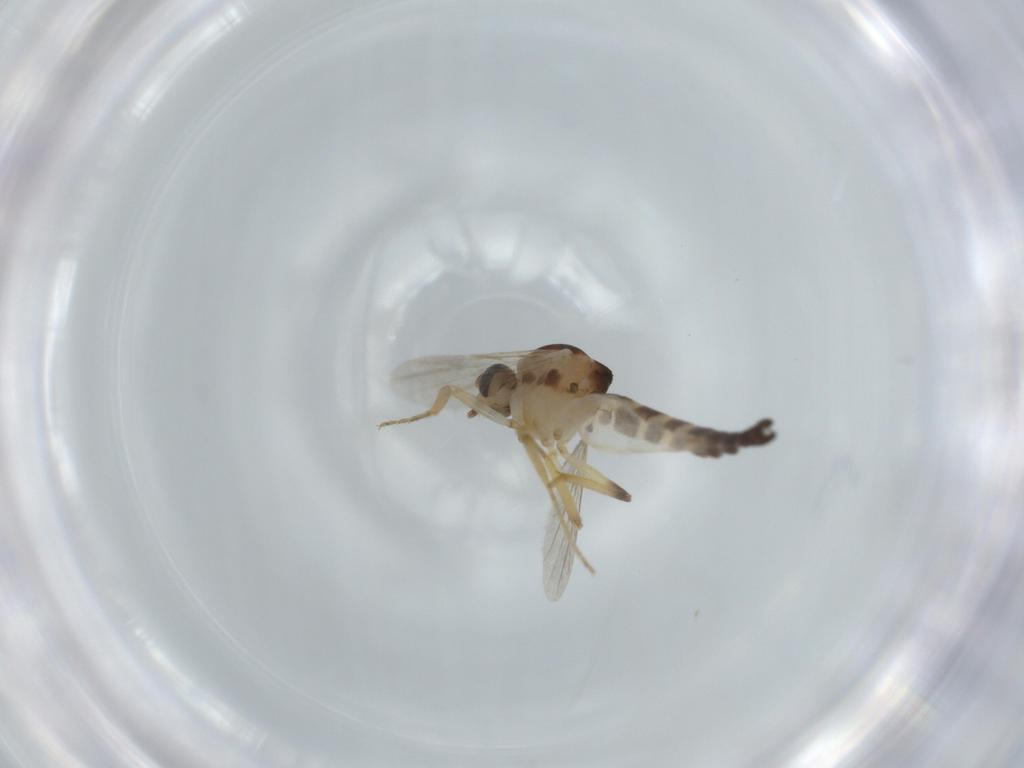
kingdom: Animalia
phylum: Arthropoda
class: Insecta
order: Diptera
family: Ceratopogonidae
